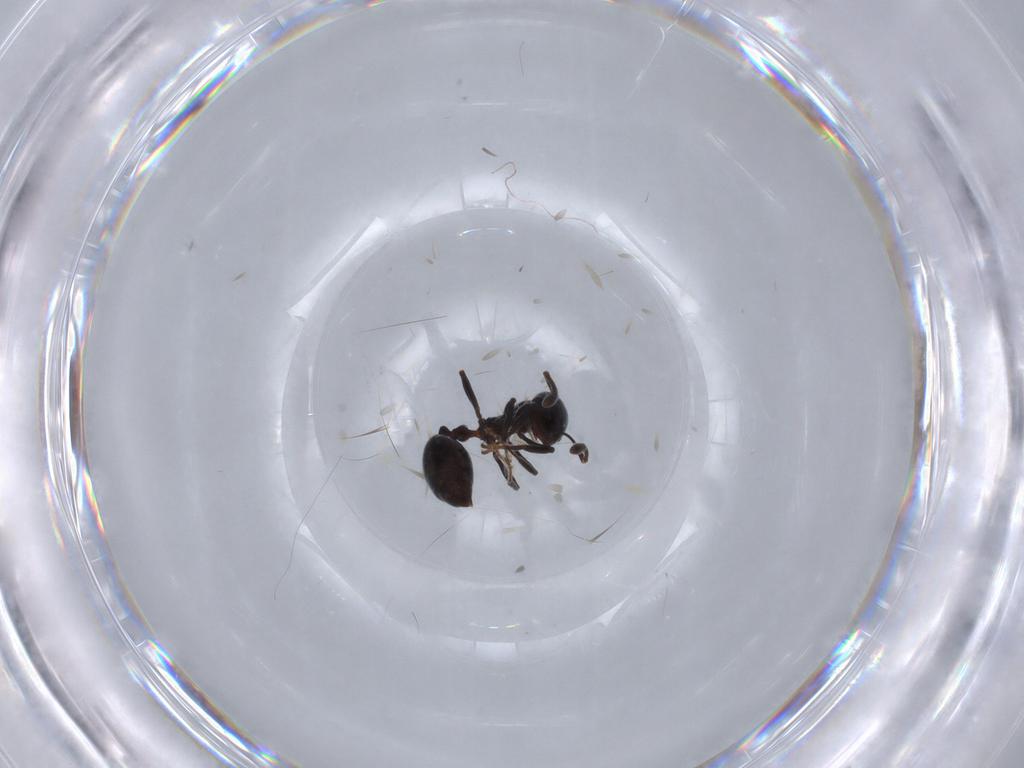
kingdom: Animalia
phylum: Arthropoda
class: Insecta
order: Hymenoptera
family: Formicidae
